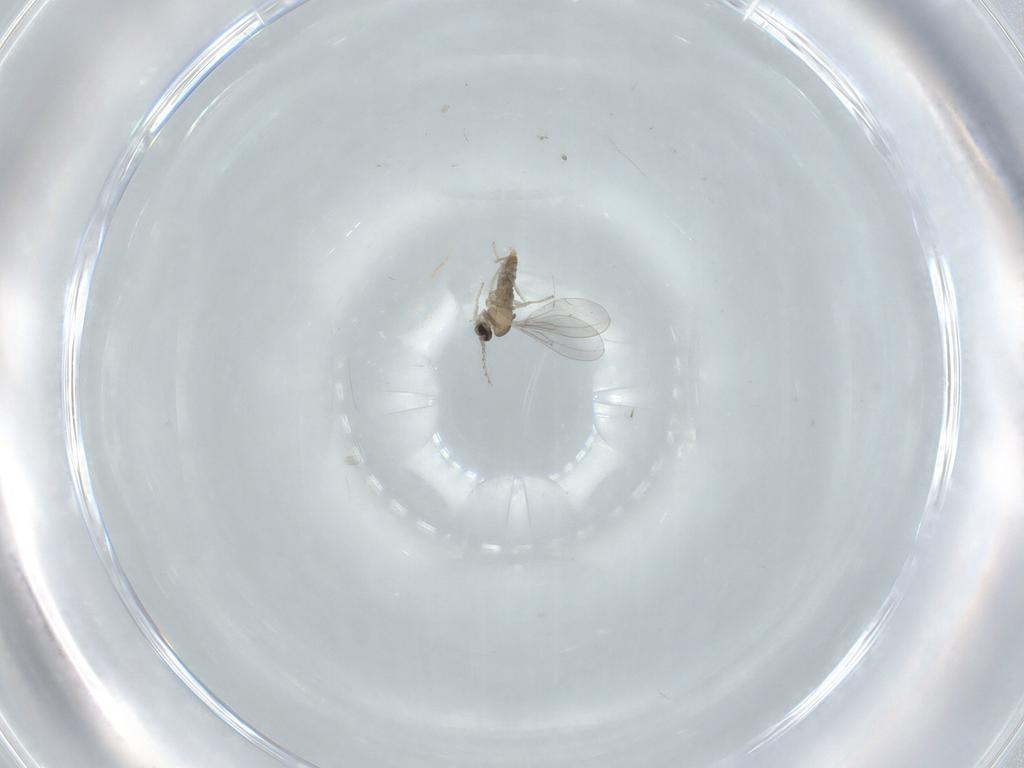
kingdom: Animalia
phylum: Arthropoda
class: Insecta
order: Diptera
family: Cecidomyiidae
